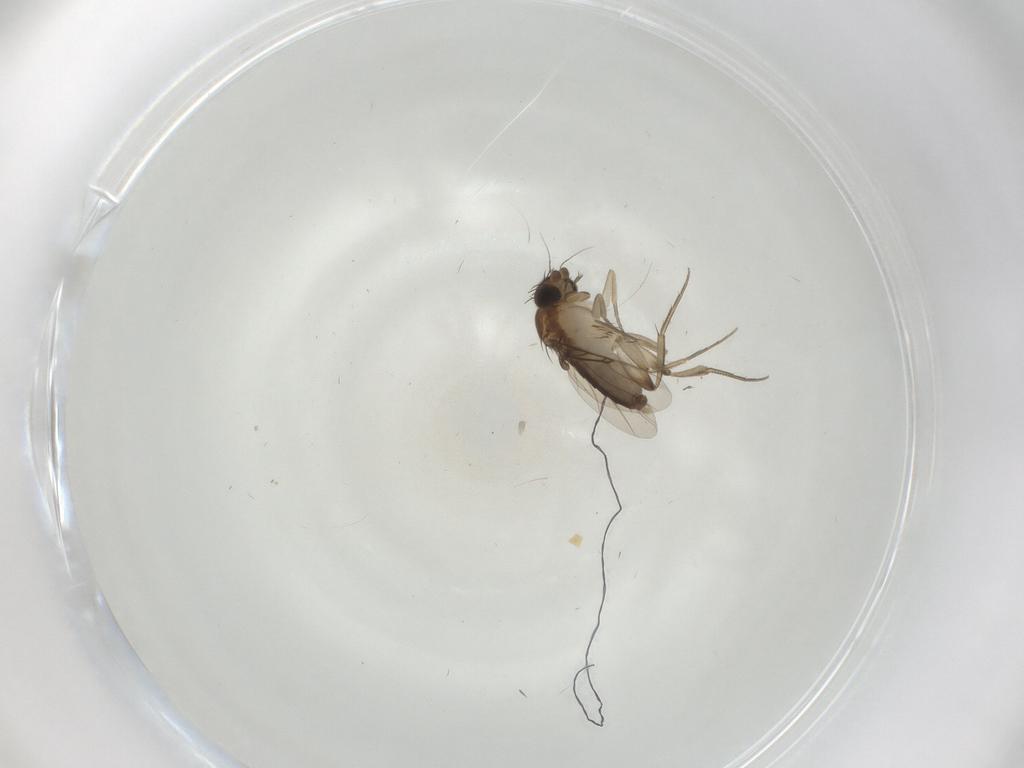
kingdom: Animalia
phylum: Arthropoda
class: Insecta
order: Diptera
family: Phoridae
